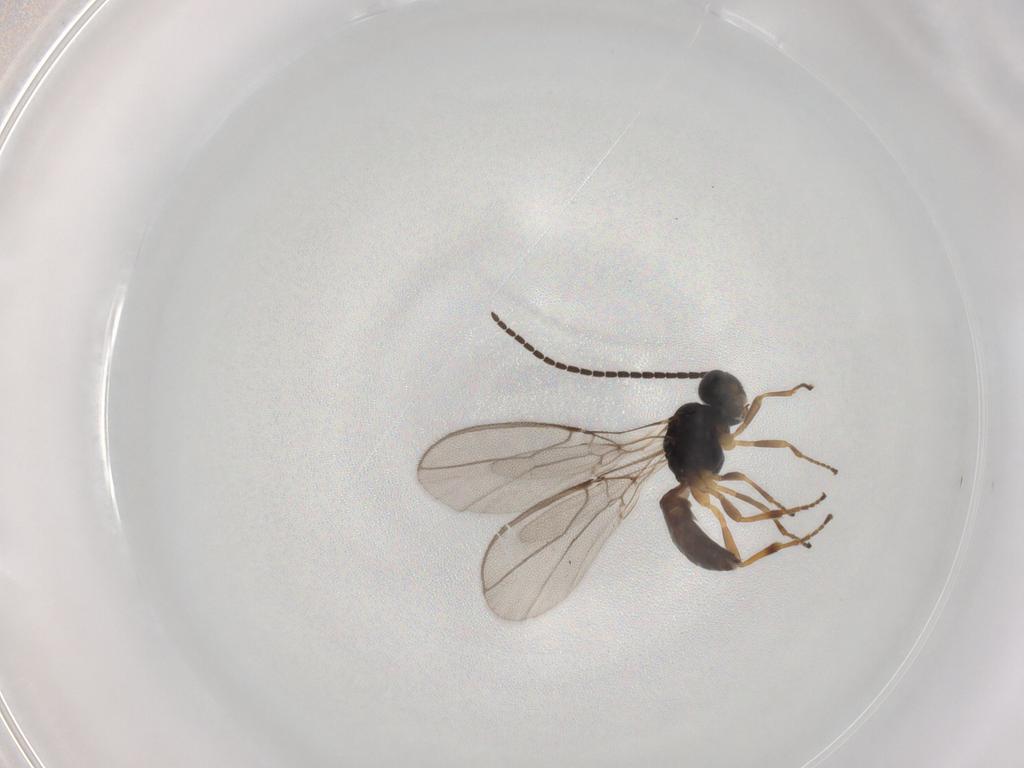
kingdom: Animalia
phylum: Arthropoda
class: Insecta
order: Hymenoptera
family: Braconidae
